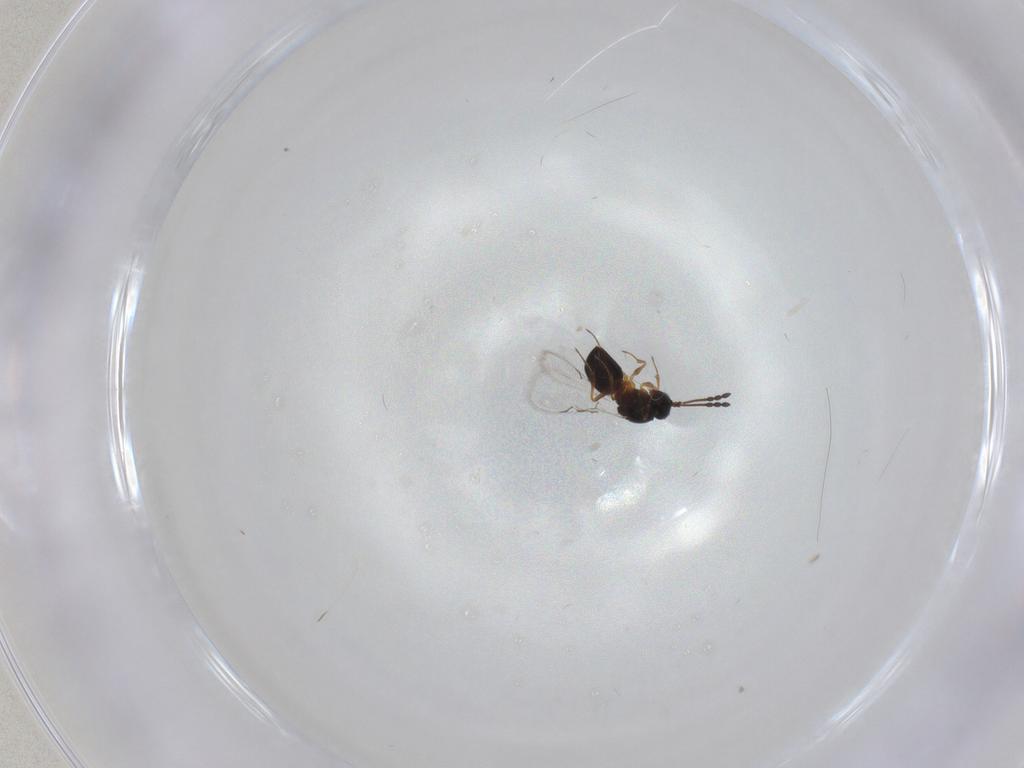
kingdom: Animalia
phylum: Arthropoda
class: Insecta
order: Hymenoptera
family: Figitidae
